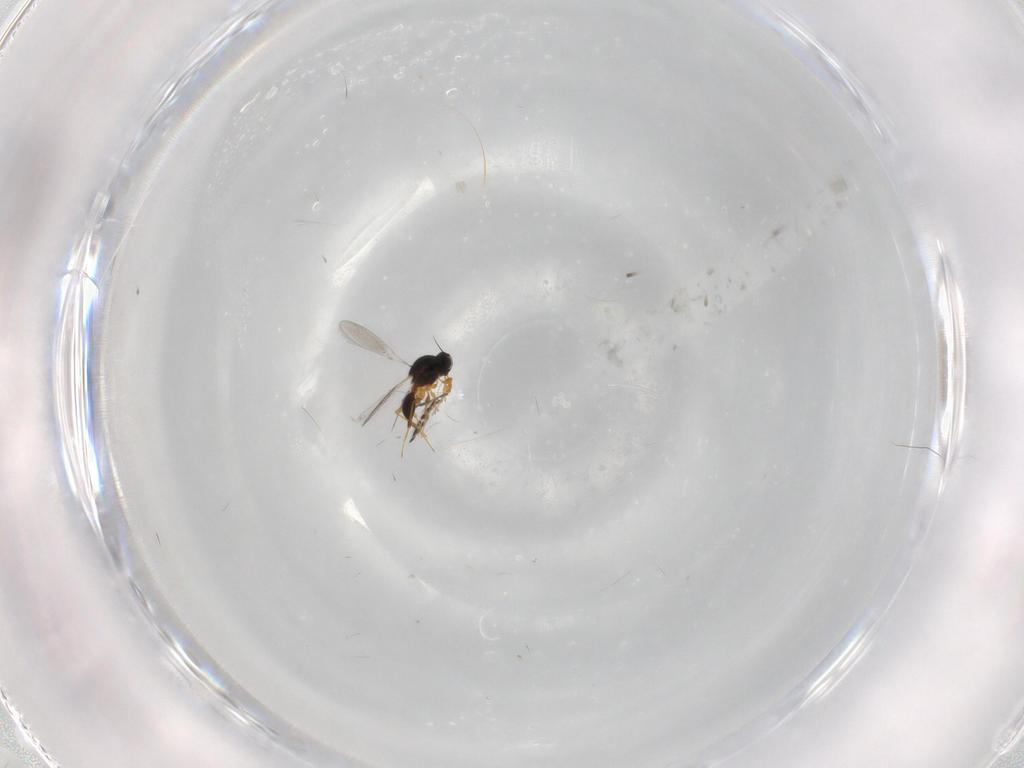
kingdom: Animalia
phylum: Arthropoda
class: Insecta
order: Hymenoptera
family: Platygastridae
